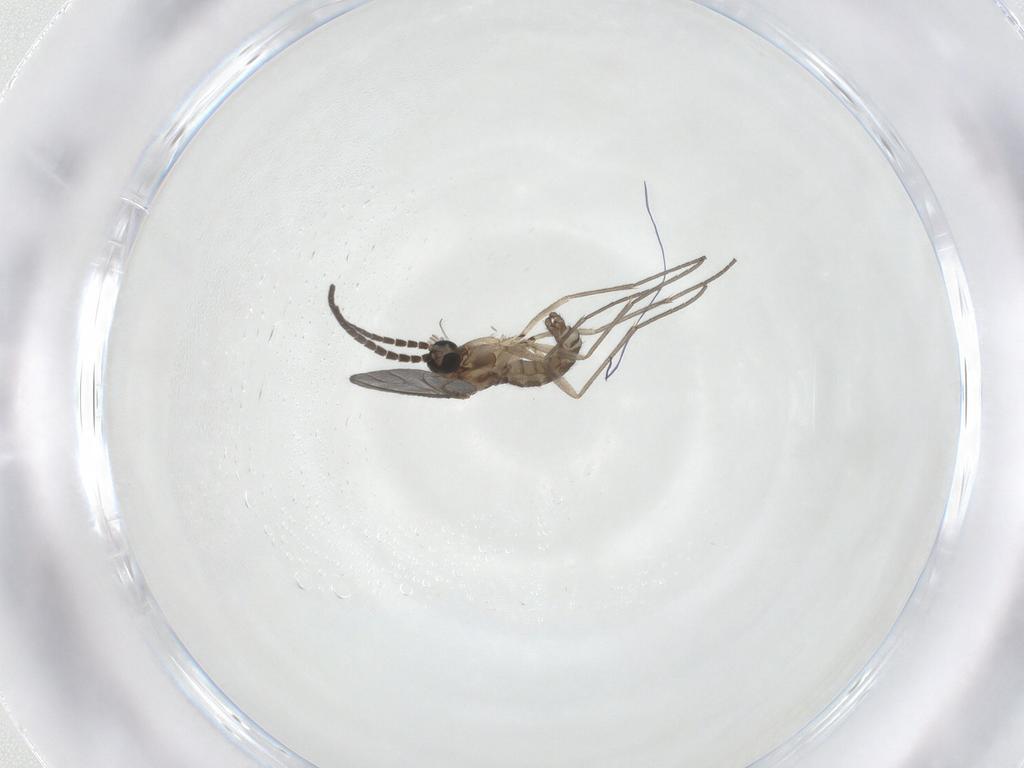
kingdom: Animalia
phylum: Arthropoda
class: Insecta
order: Diptera
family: Sciaridae
